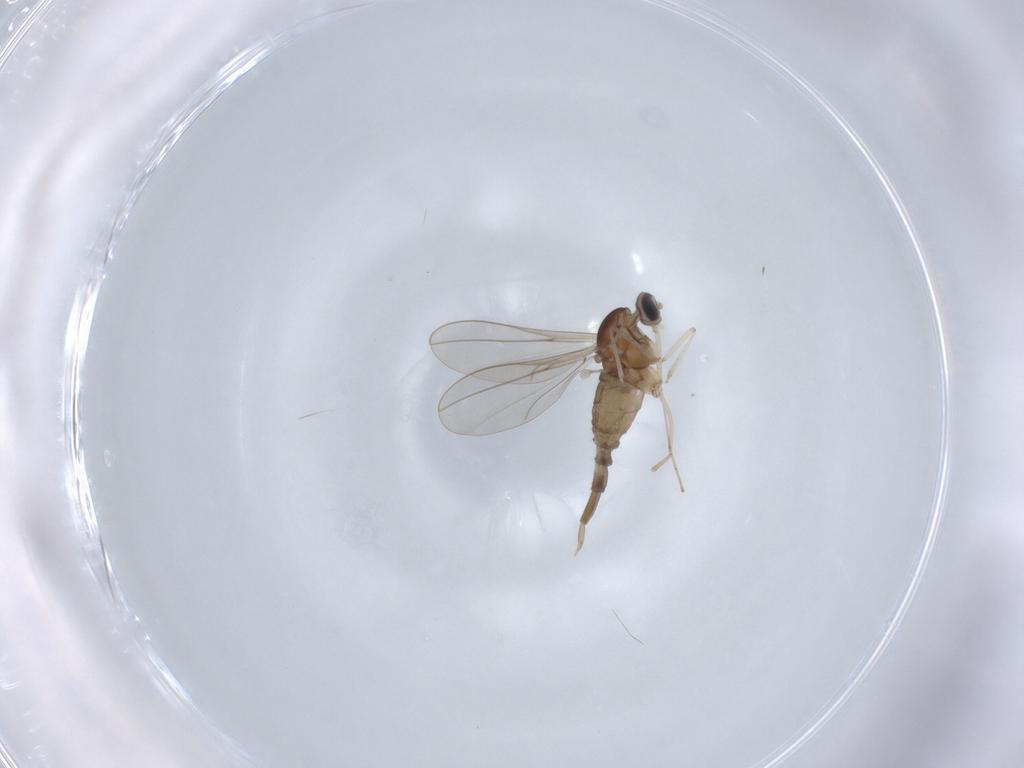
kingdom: Animalia
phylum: Arthropoda
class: Insecta
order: Diptera
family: Cecidomyiidae
